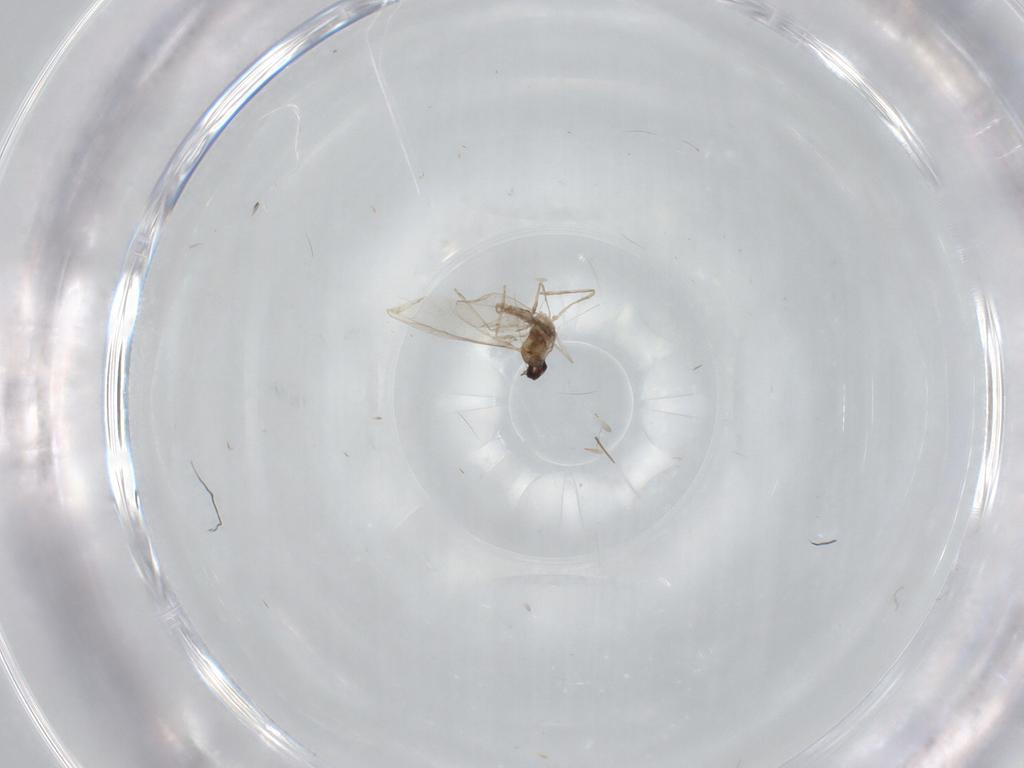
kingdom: Animalia
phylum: Arthropoda
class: Insecta
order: Diptera
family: Cecidomyiidae
